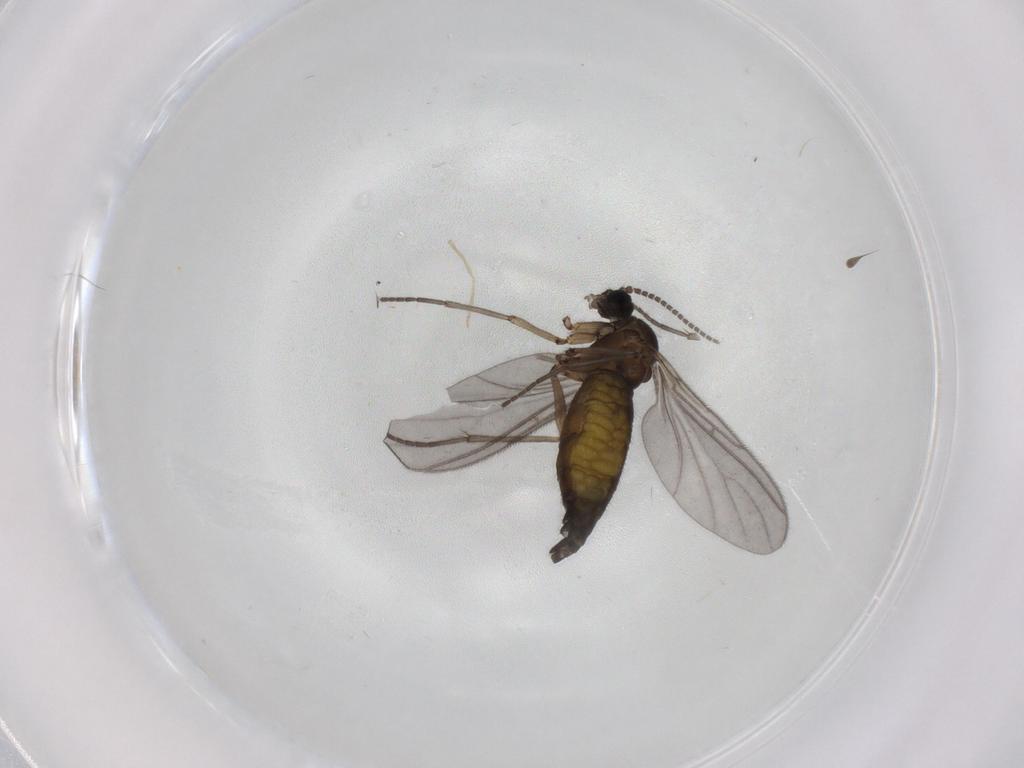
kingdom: Animalia
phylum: Arthropoda
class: Insecta
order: Diptera
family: Sciaridae
